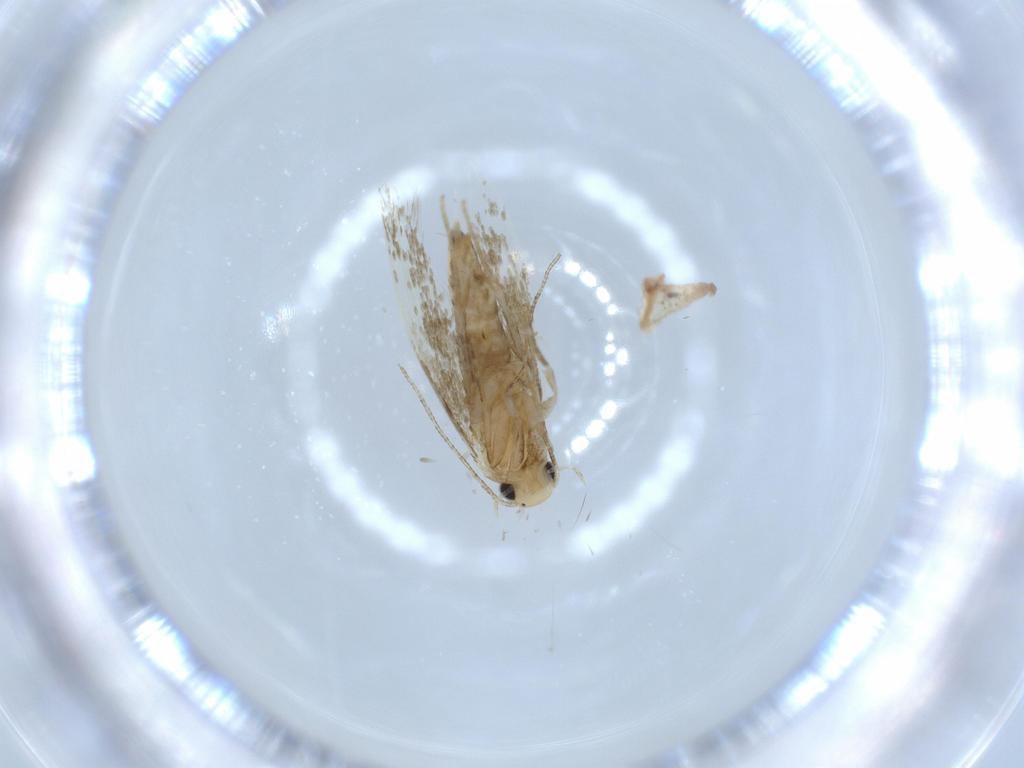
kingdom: Animalia
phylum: Arthropoda
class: Insecta
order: Lepidoptera
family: Tineidae
